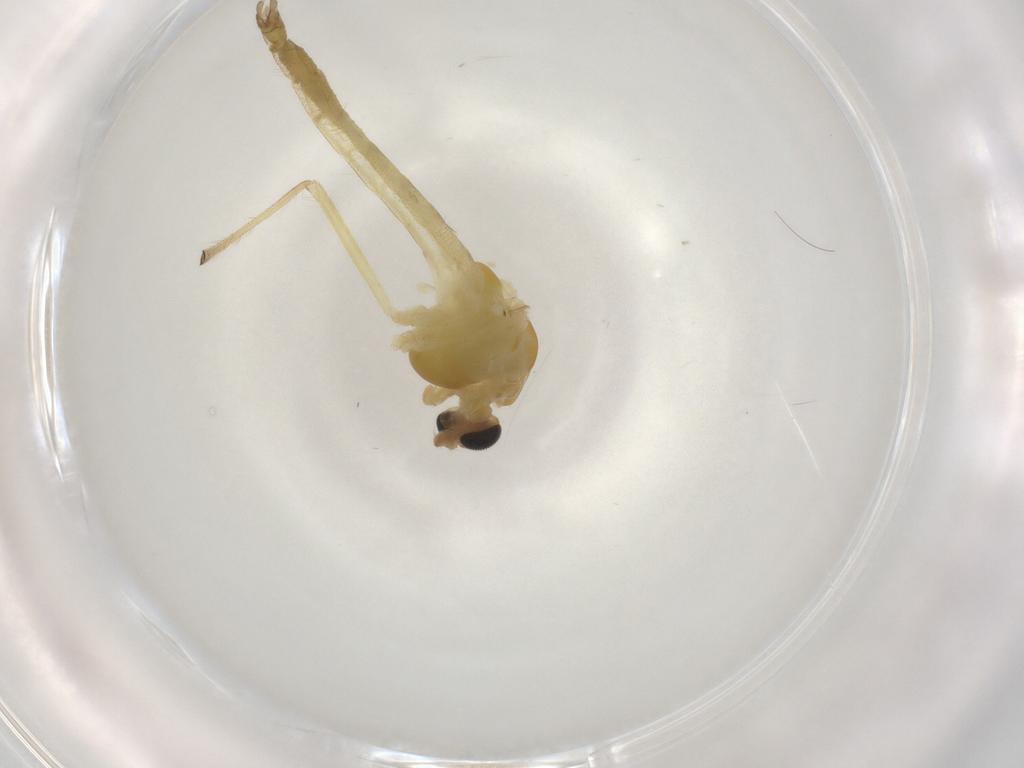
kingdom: Animalia
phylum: Arthropoda
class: Insecta
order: Diptera
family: Chironomidae
